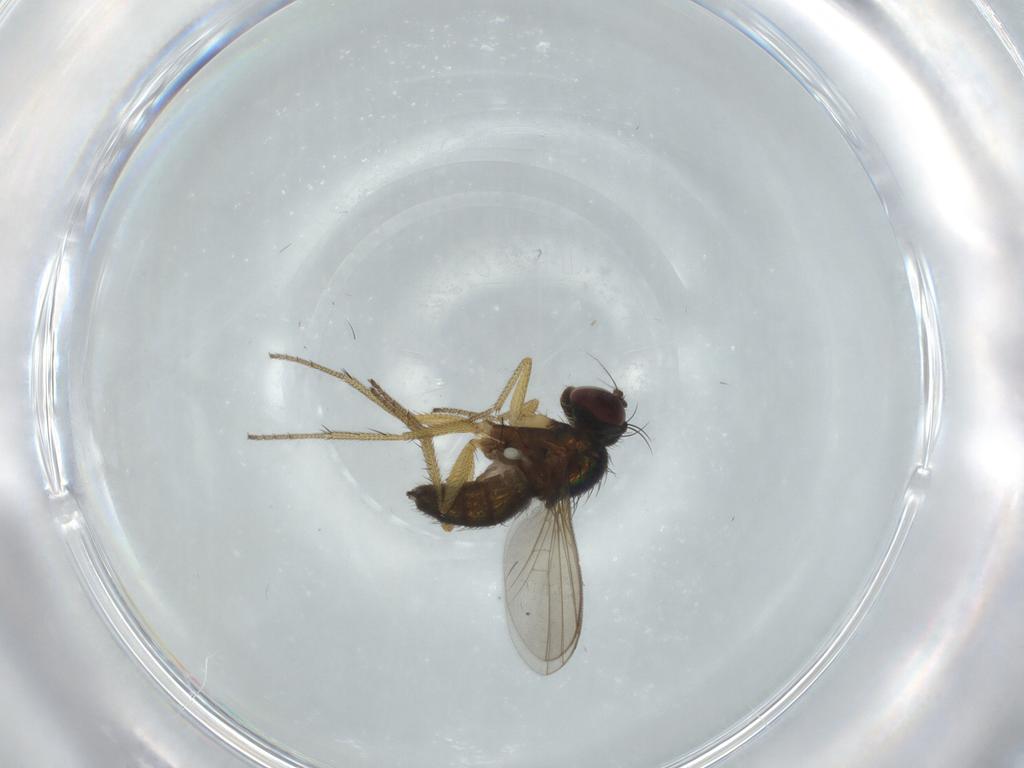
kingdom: Animalia
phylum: Arthropoda
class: Insecta
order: Diptera
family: Dolichopodidae
